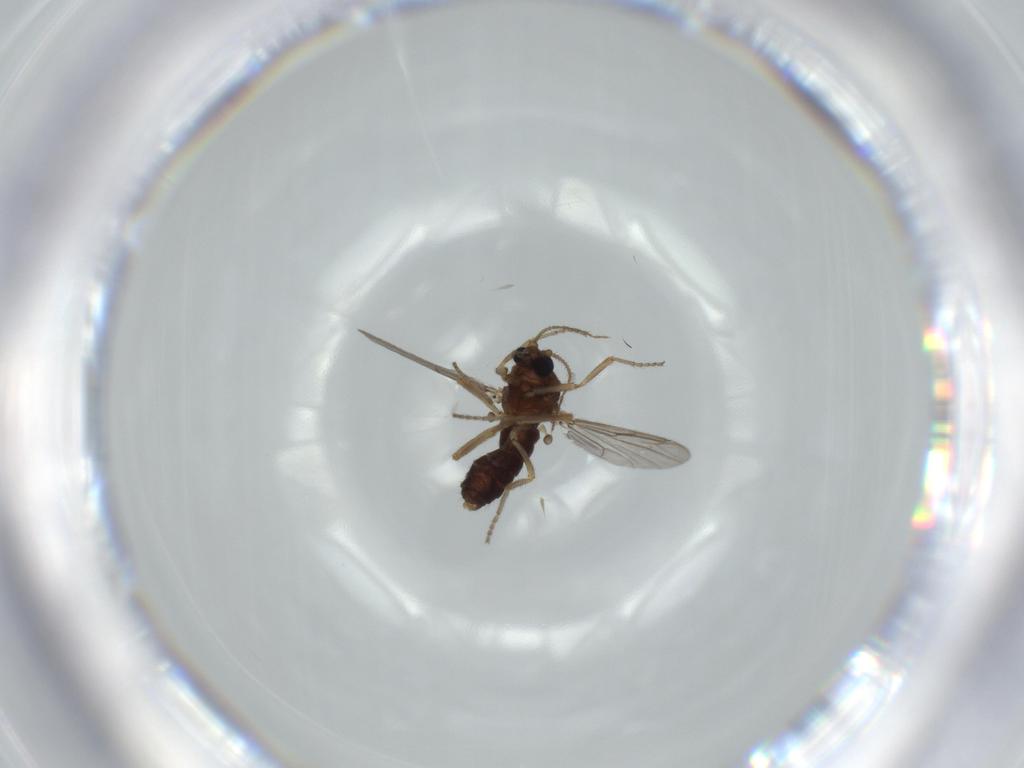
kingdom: Animalia
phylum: Arthropoda
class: Insecta
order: Diptera
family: Ceratopogonidae
